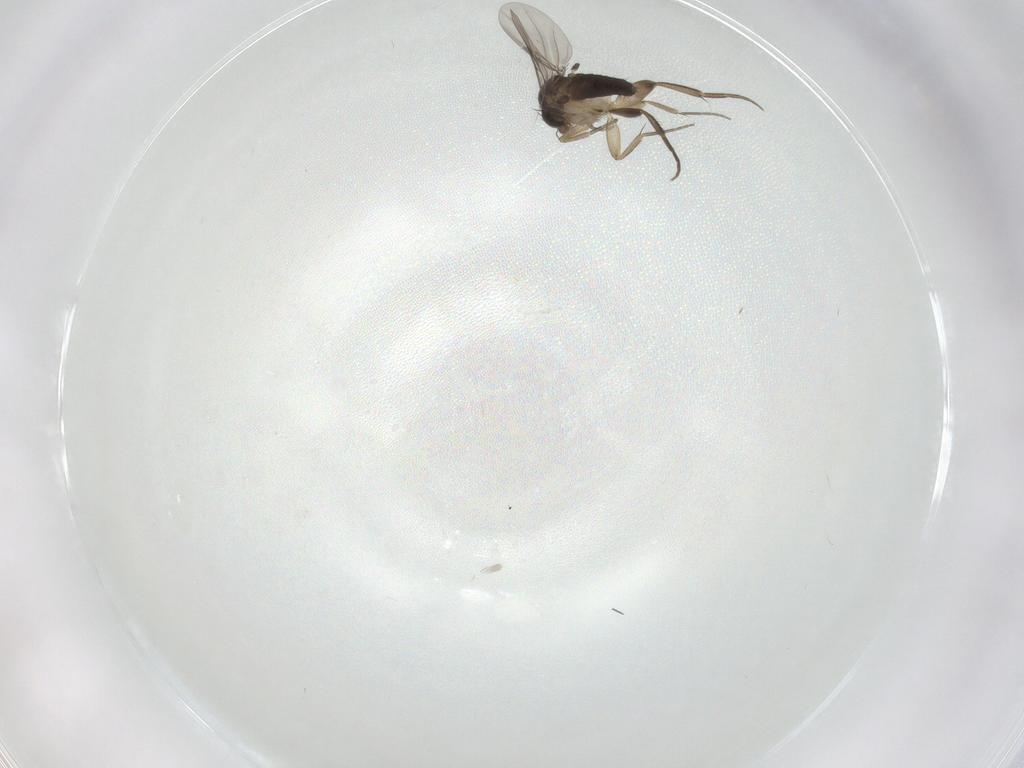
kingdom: Animalia
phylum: Arthropoda
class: Insecta
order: Diptera
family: Phoridae
